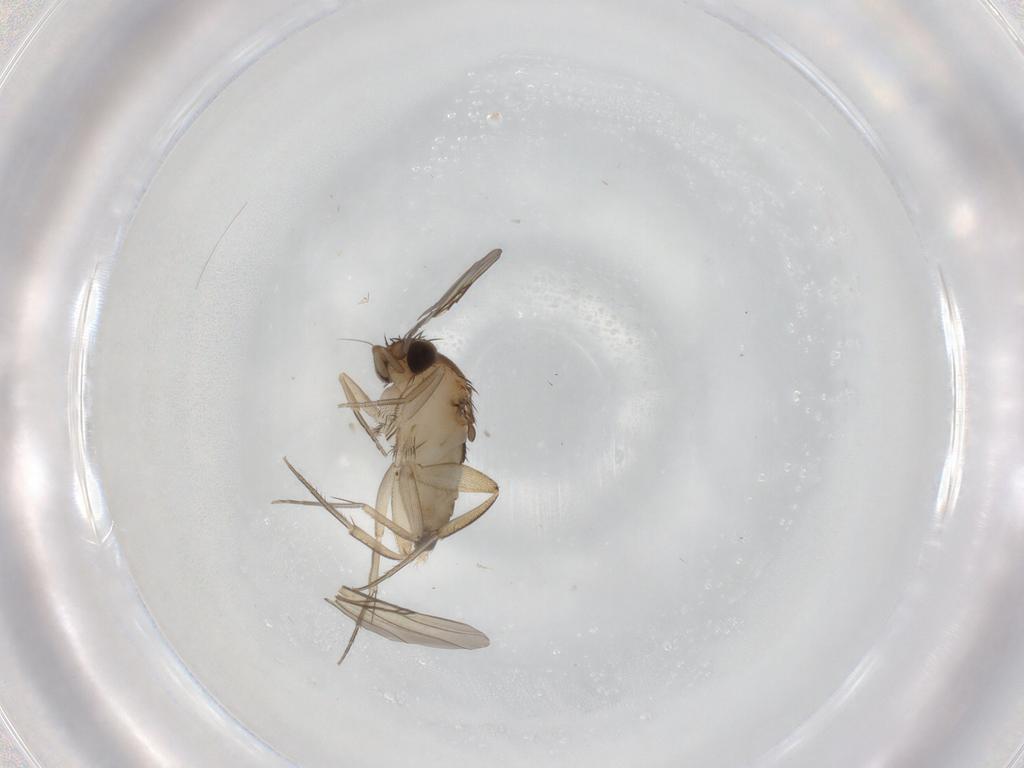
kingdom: Animalia
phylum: Arthropoda
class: Insecta
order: Diptera
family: Phoridae
